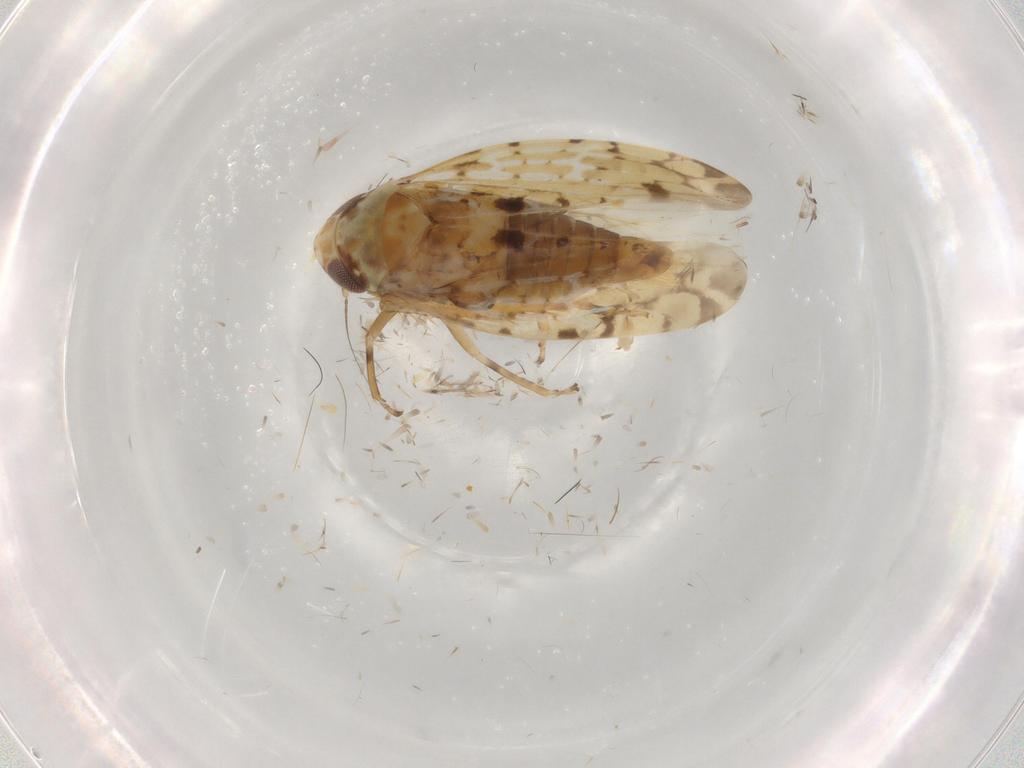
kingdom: Animalia
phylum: Arthropoda
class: Insecta
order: Hemiptera
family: Cicadellidae
